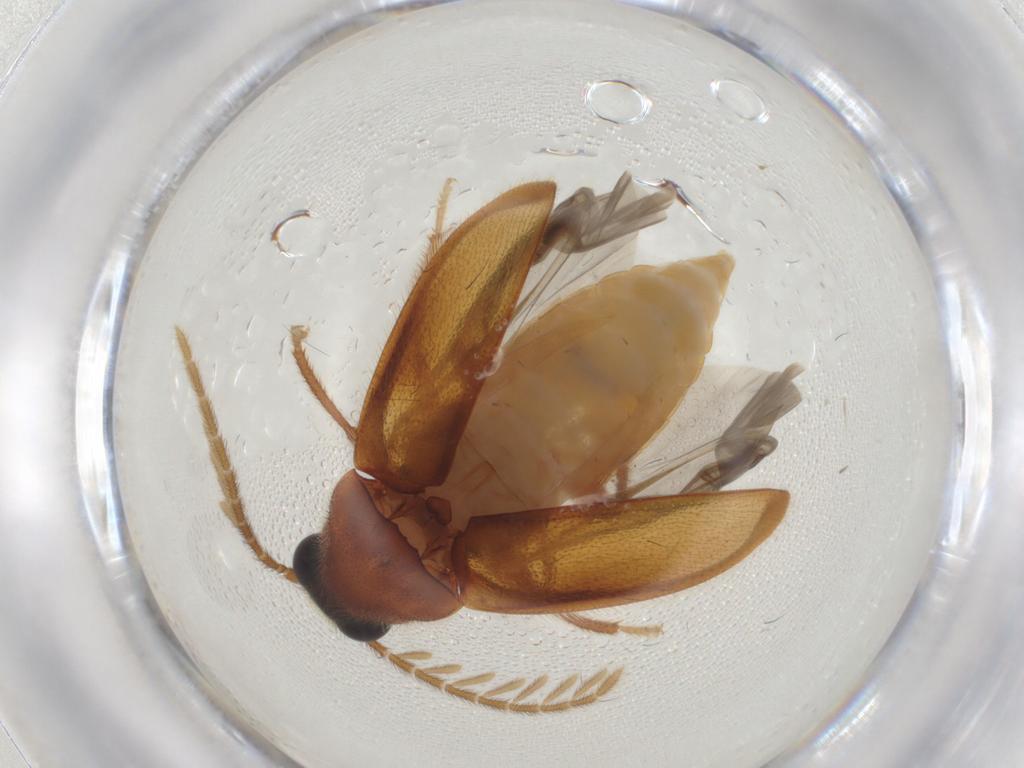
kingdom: Animalia
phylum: Arthropoda
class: Insecta
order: Coleoptera
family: Ptilodactylidae
